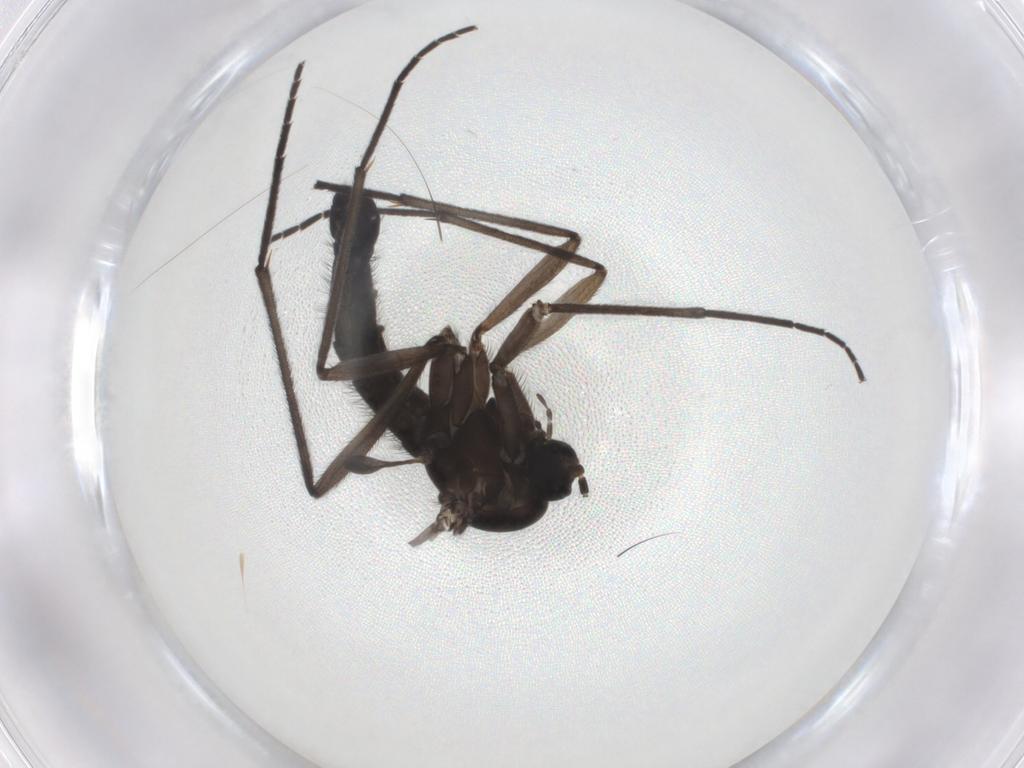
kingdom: Animalia
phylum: Arthropoda
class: Insecta
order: Diptera
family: Sciaridae
